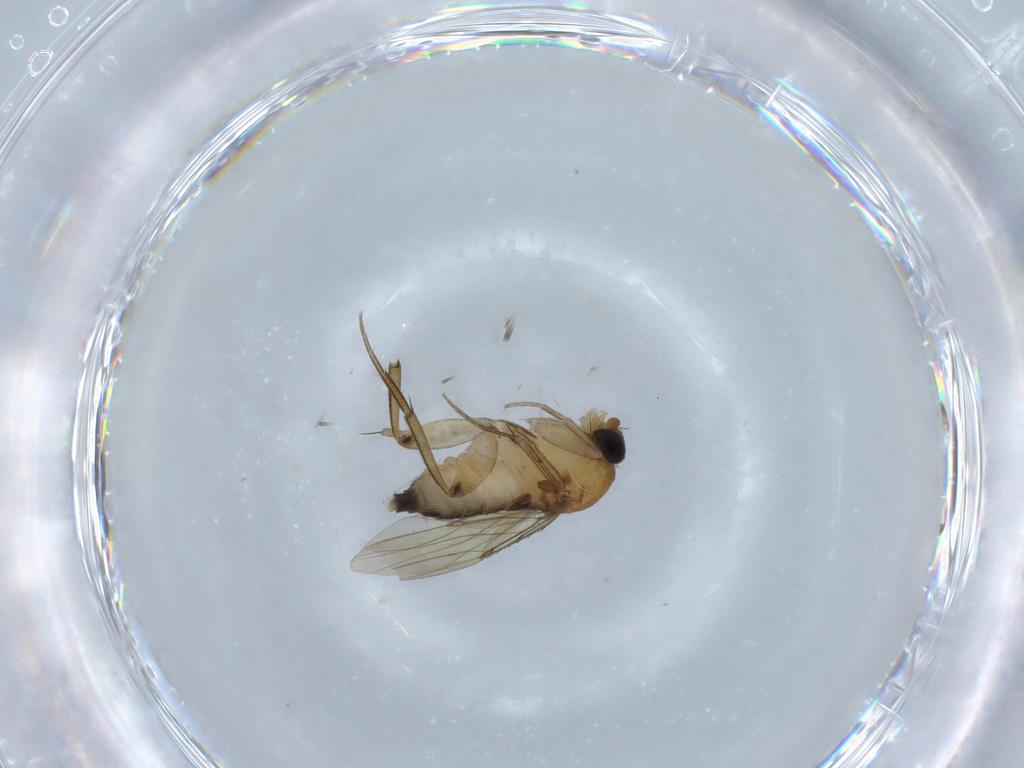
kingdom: Animalia
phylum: Arthropoda
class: Insecta
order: Diptera
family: Phoridae
